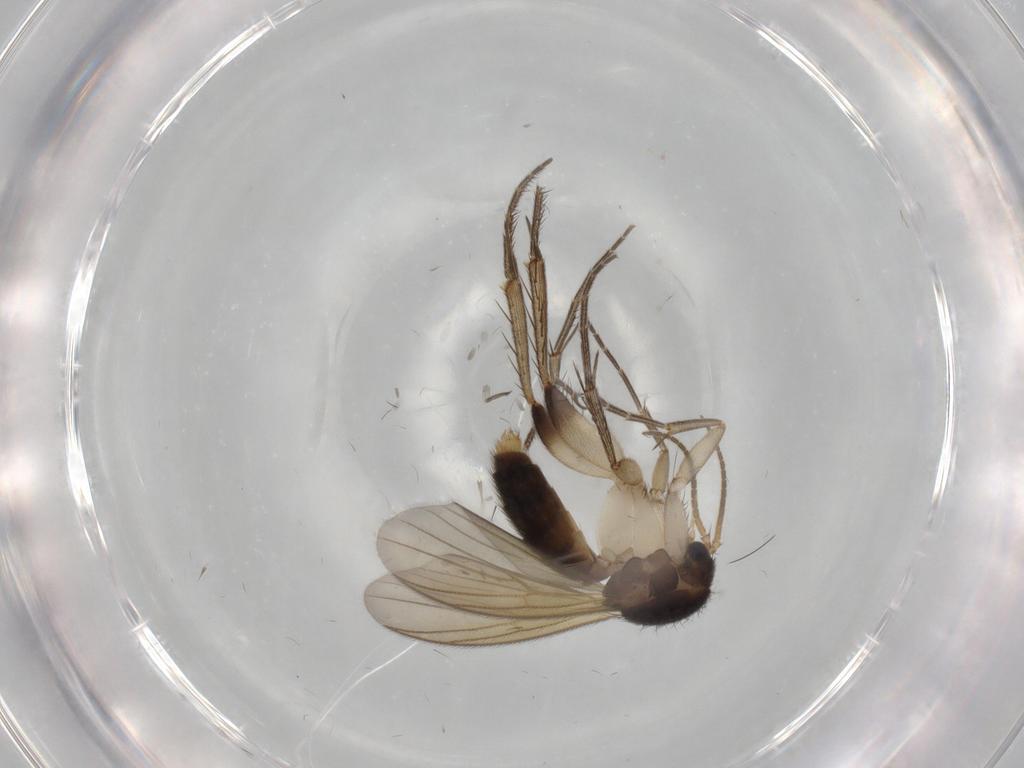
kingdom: Animalia
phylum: Arthropoda
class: Insecta
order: Diptera
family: Mycetophilidae
